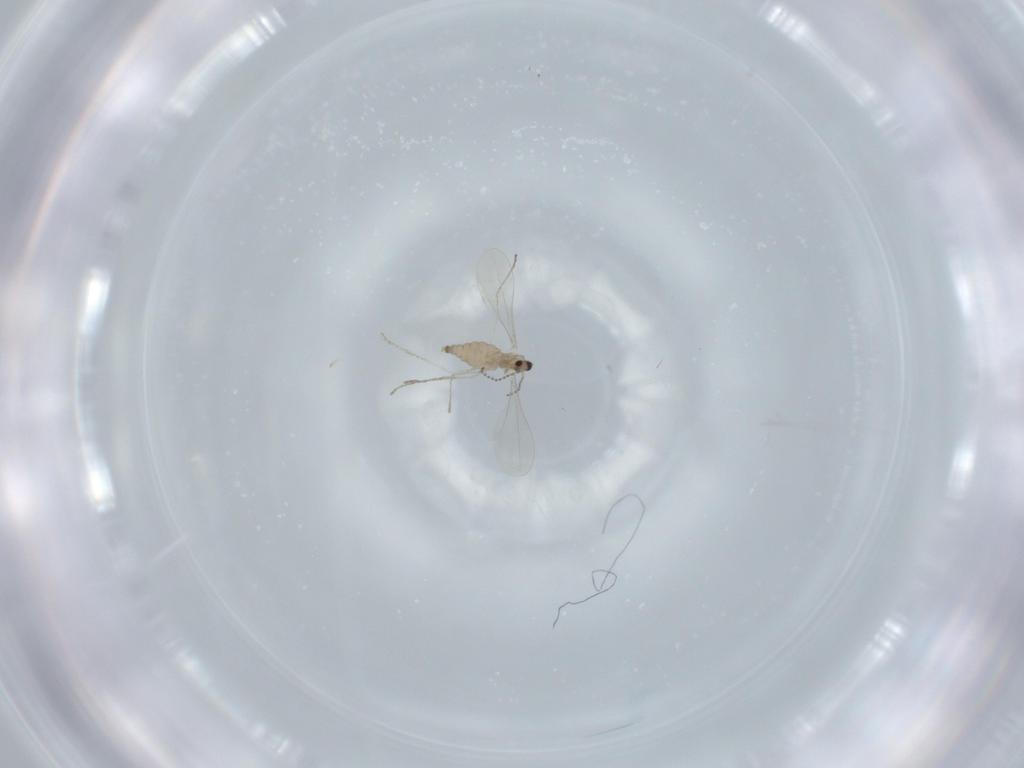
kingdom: Animalia
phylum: Arthropoda
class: Insecta
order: Diptera
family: Cecidomyiidae
